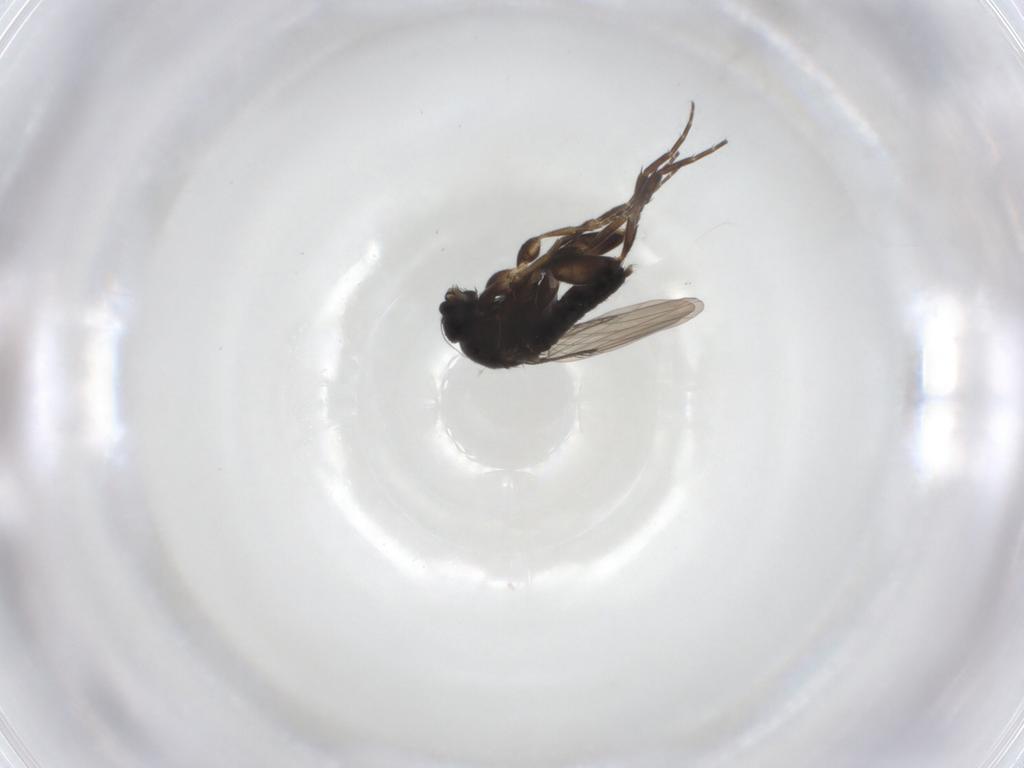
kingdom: Animalia
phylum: Arthropoda
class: Insecta
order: Diptera
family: Phoridae
